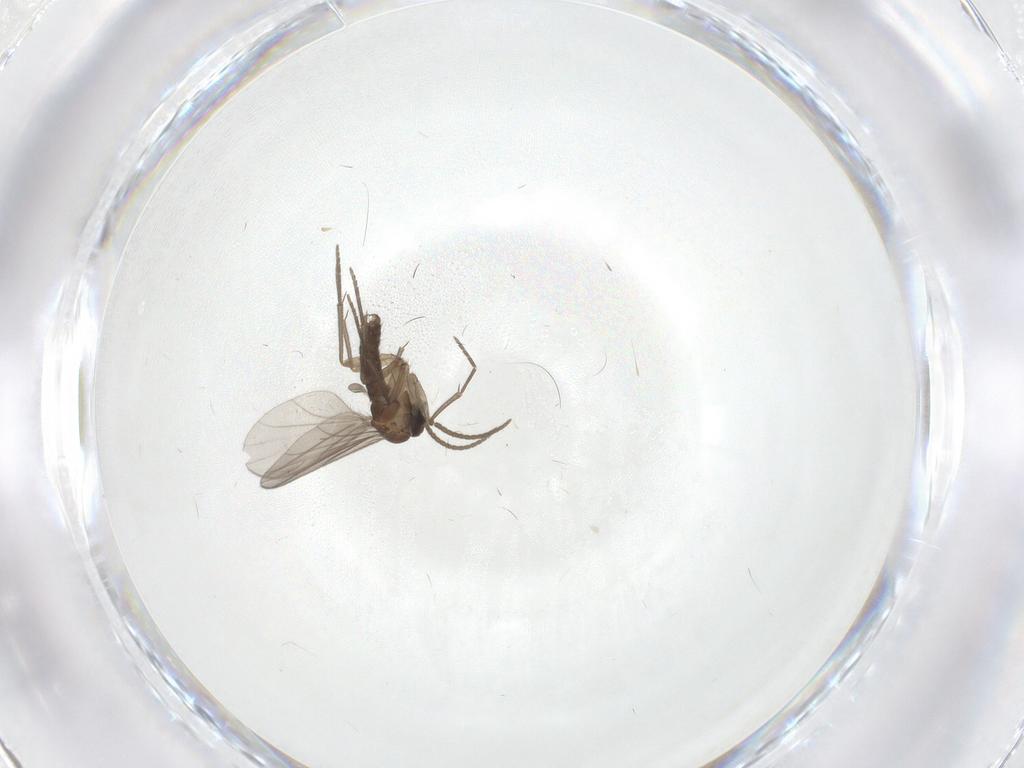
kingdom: Animalia
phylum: Arthropoda
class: Insecta
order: Diptera
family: Sciaridae
